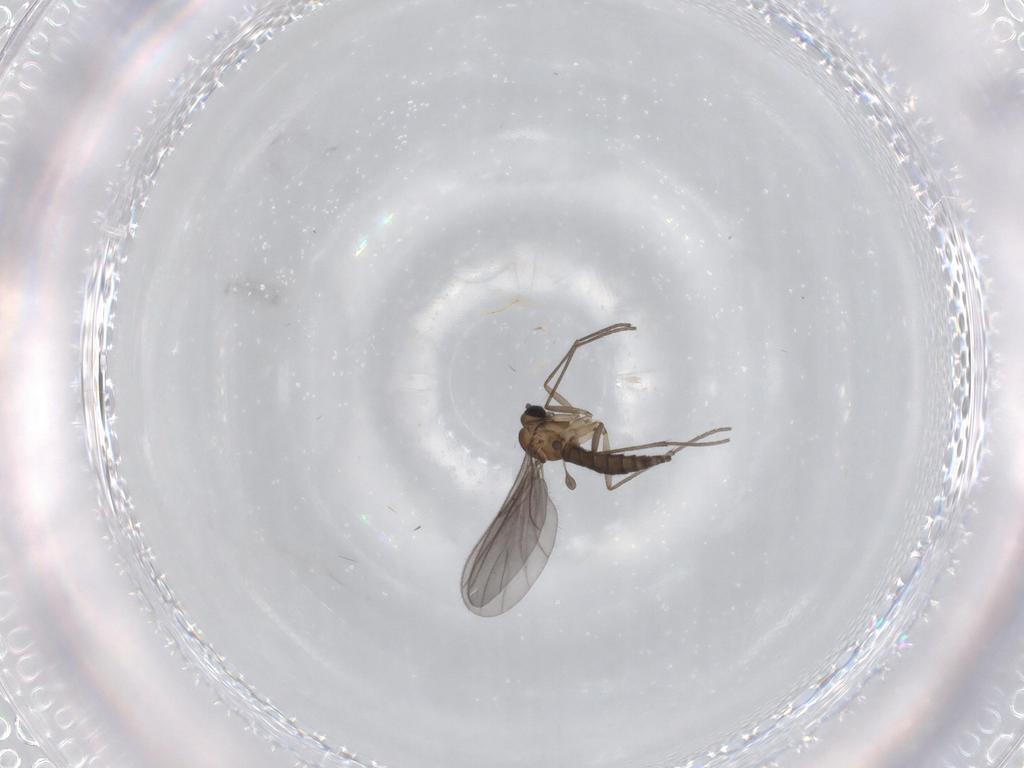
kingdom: Animalia
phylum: Arthropoda
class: Insecta
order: Diptera
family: Sciaridae
